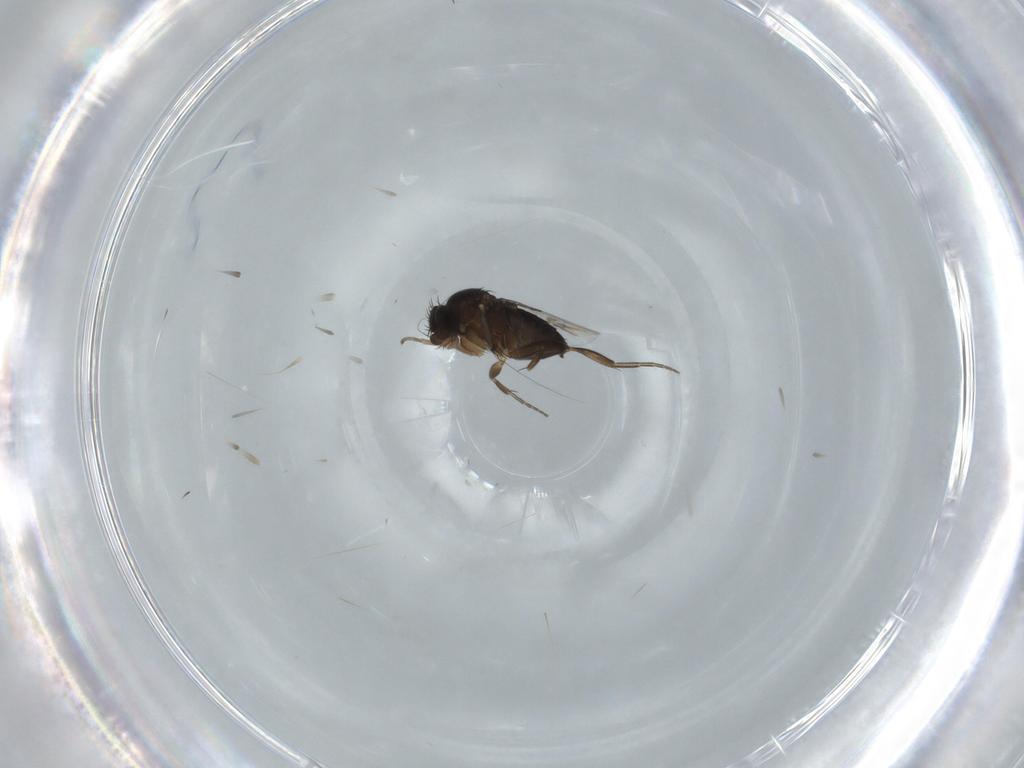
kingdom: Animalia
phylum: Arthropoda
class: Insecta
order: Diptera
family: Phoridae
